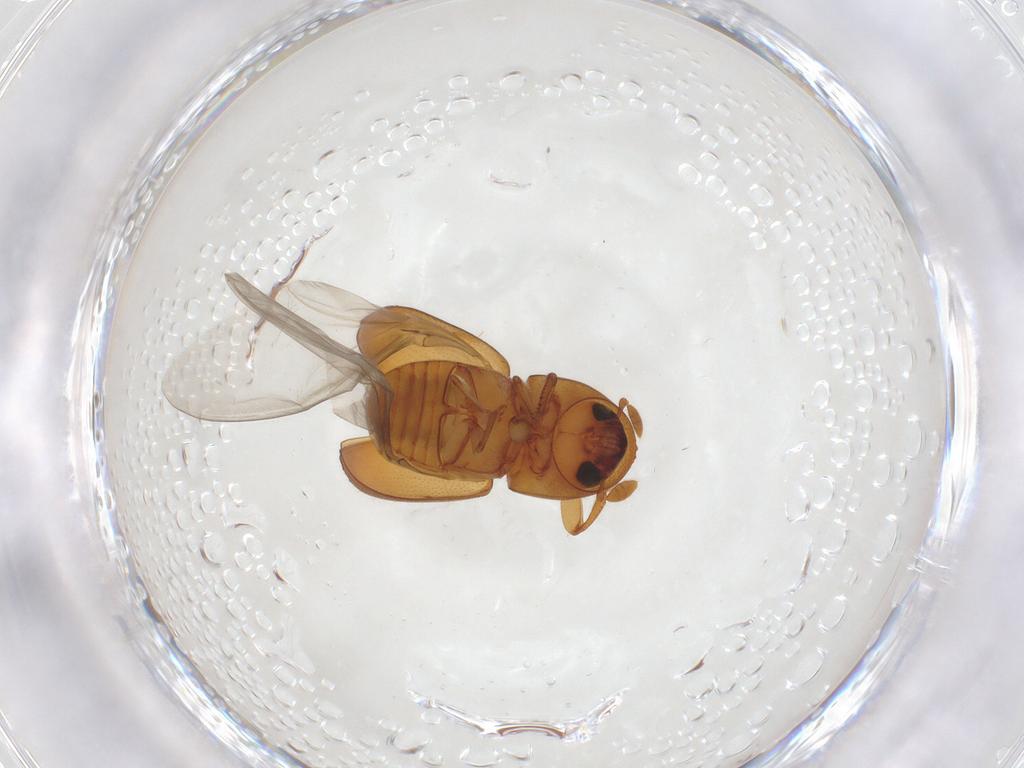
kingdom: Animalia
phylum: Arthropoda
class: Insecta
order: Coleoptera
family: Curculionidae
